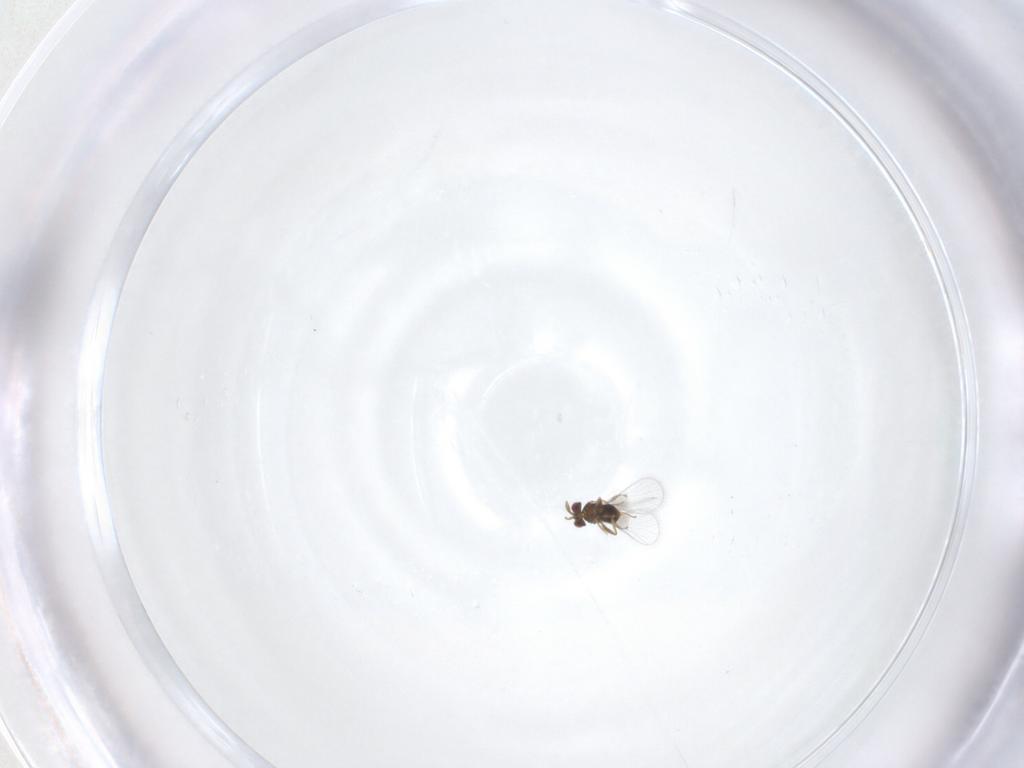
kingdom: Animalia
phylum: Arthropoda
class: Insecta
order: Hymenoptera
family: Trichogrammatidae
